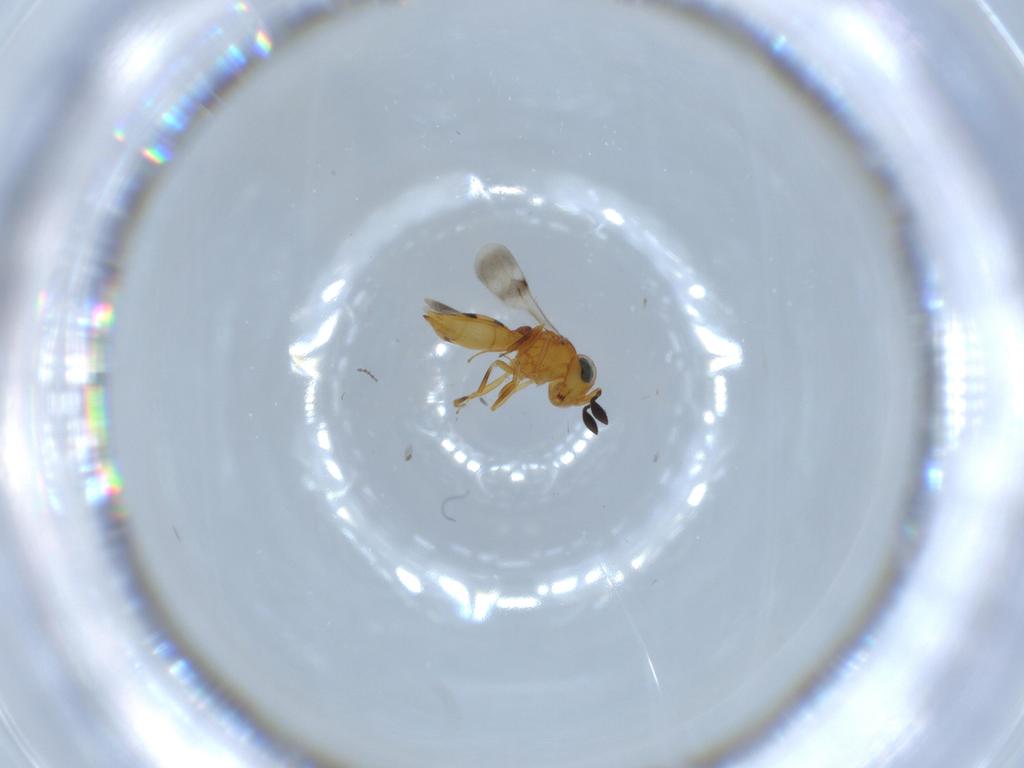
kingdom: Animalia
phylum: Arthropoda
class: Insecta
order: Hymenoptera
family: Scelionidae
